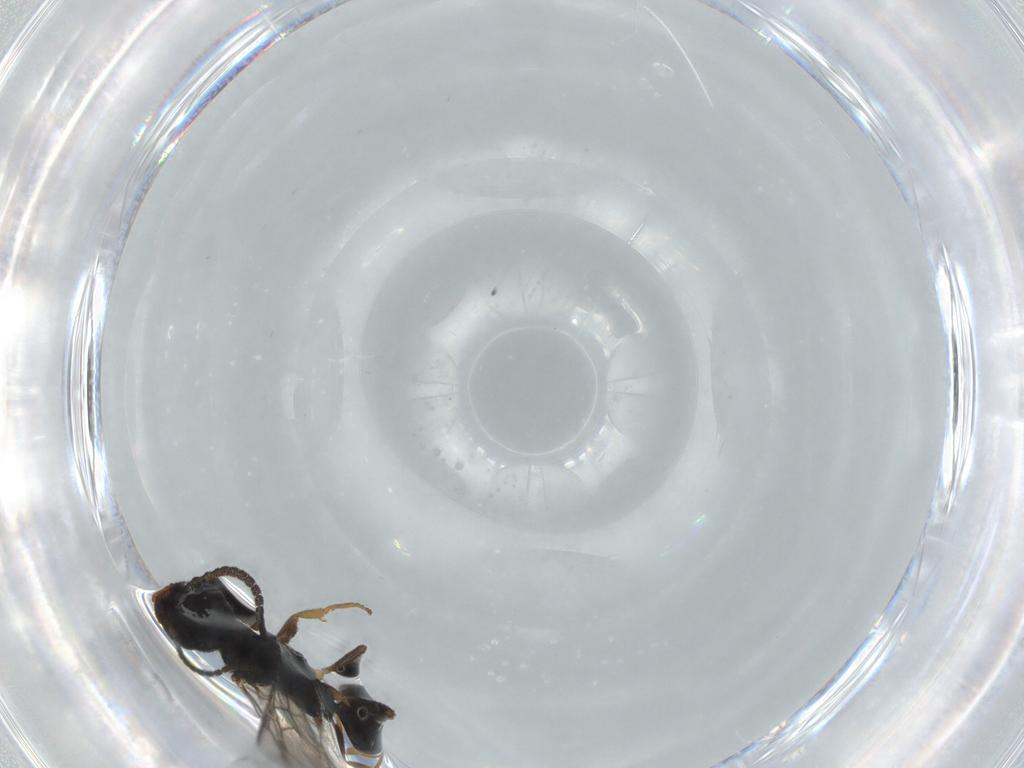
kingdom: Animalia
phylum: Arthropoda
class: Insecta
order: Hymenoptera
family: Bethylidae
